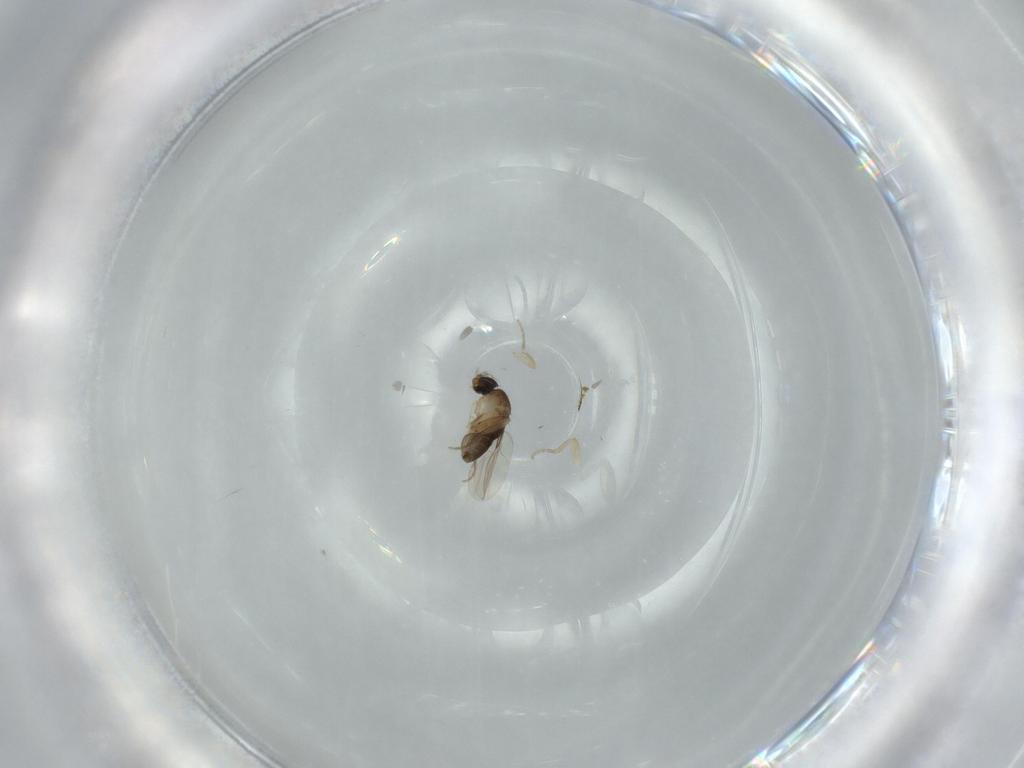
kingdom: Animalia
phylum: Arthropoda
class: Insecta
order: Diptera
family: Phoridae
